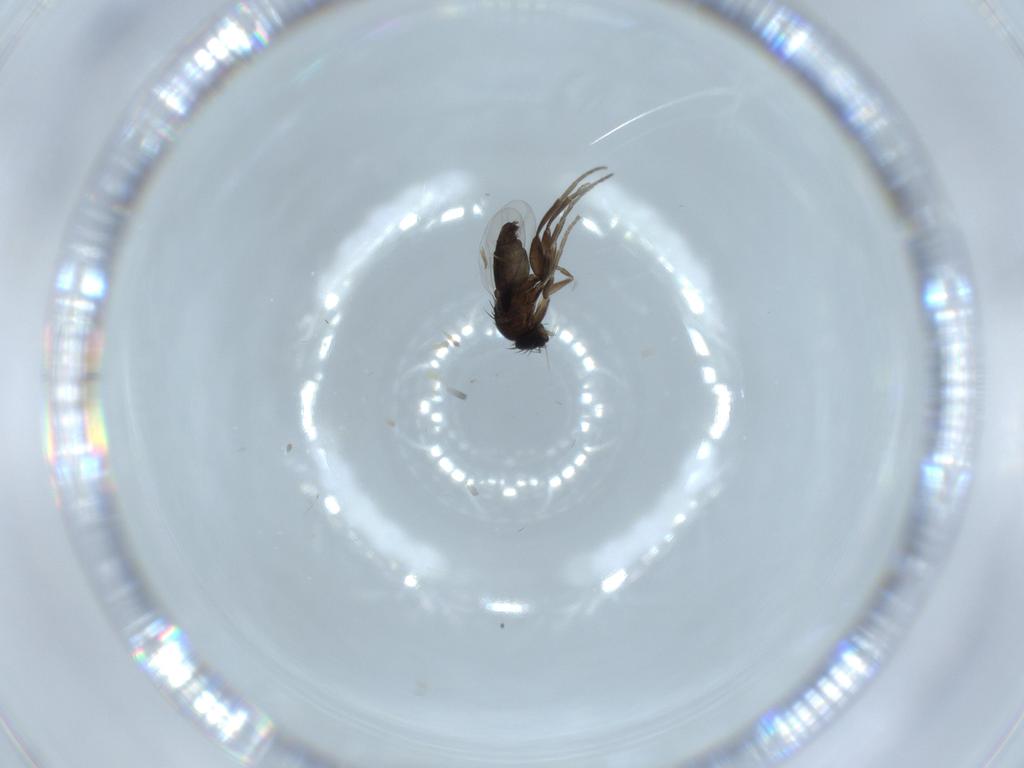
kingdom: Animalia
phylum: Arthropoda
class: Insecta
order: Diptera
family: Phoridae
